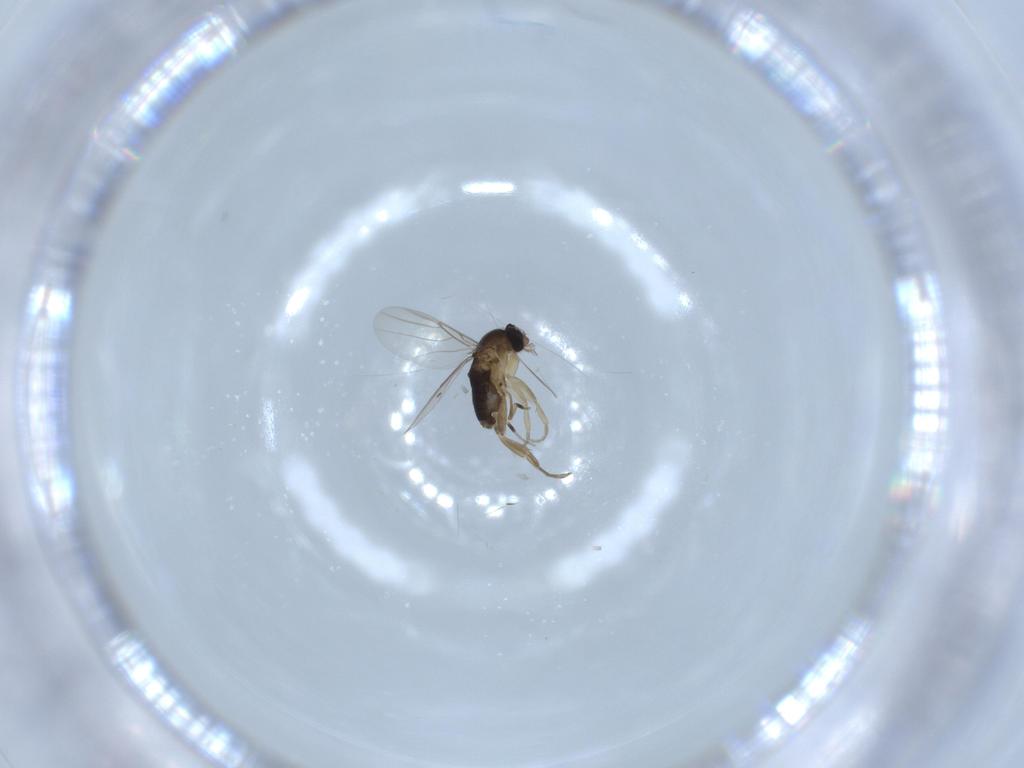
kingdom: Animalia
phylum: Arthropoda
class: Insecta
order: Diptera
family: Phoridae
